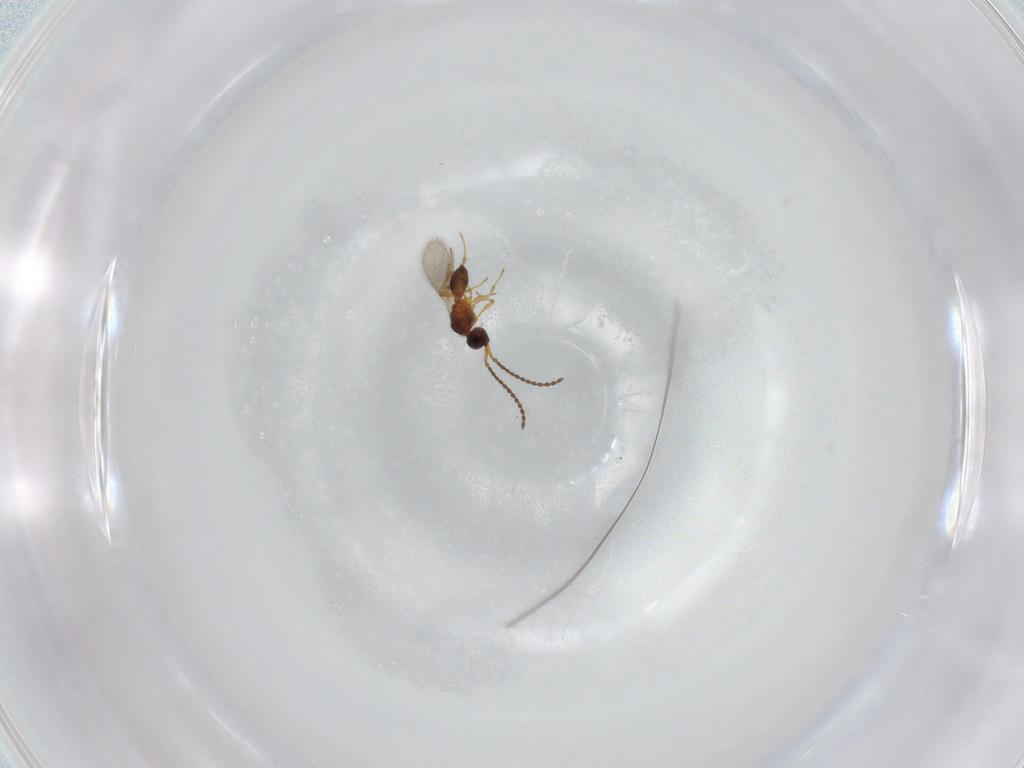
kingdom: Animalia
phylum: Arthropoda
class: Insecta
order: Hymenoptera
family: Diapriidae
